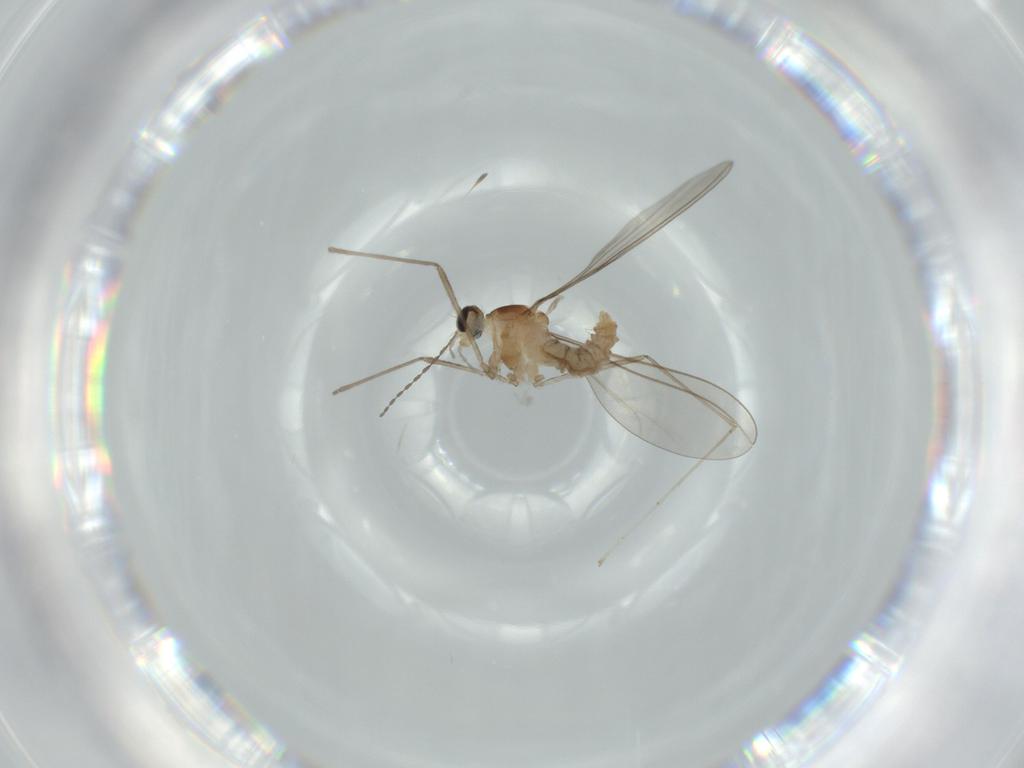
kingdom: Animalia
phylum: Arthropoda
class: Insecta
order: Diptera
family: Cecidomyiidae
